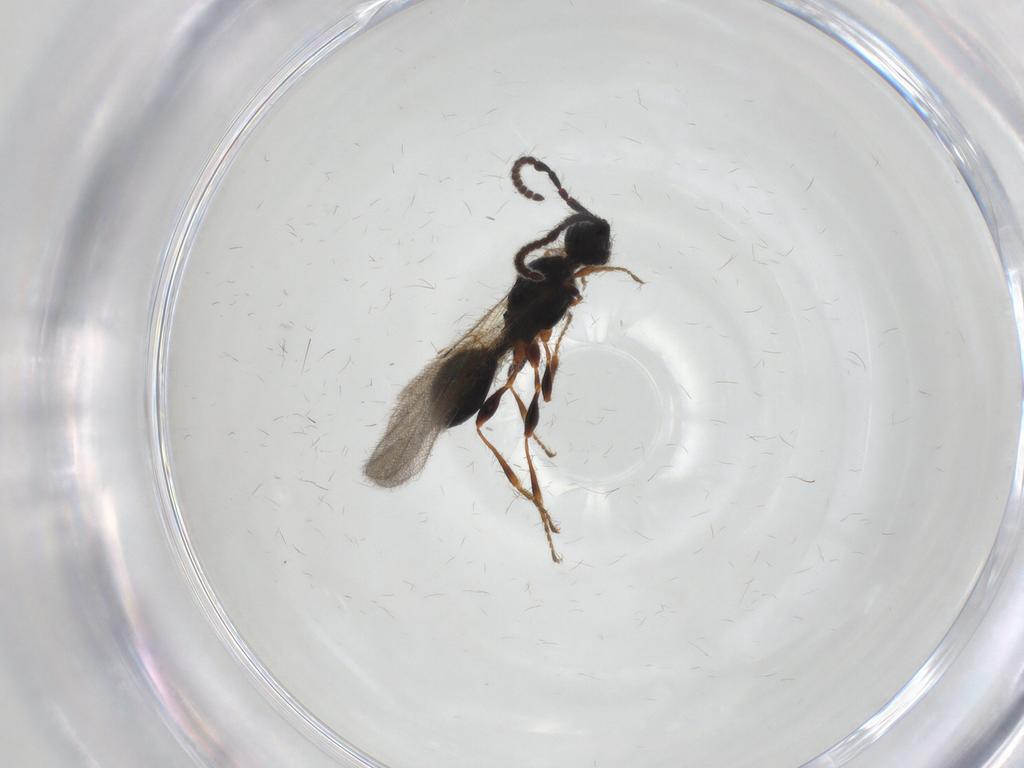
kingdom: Animalia
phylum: Arthropoda
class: Insecta
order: Hymenoptera
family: Diapriidae
